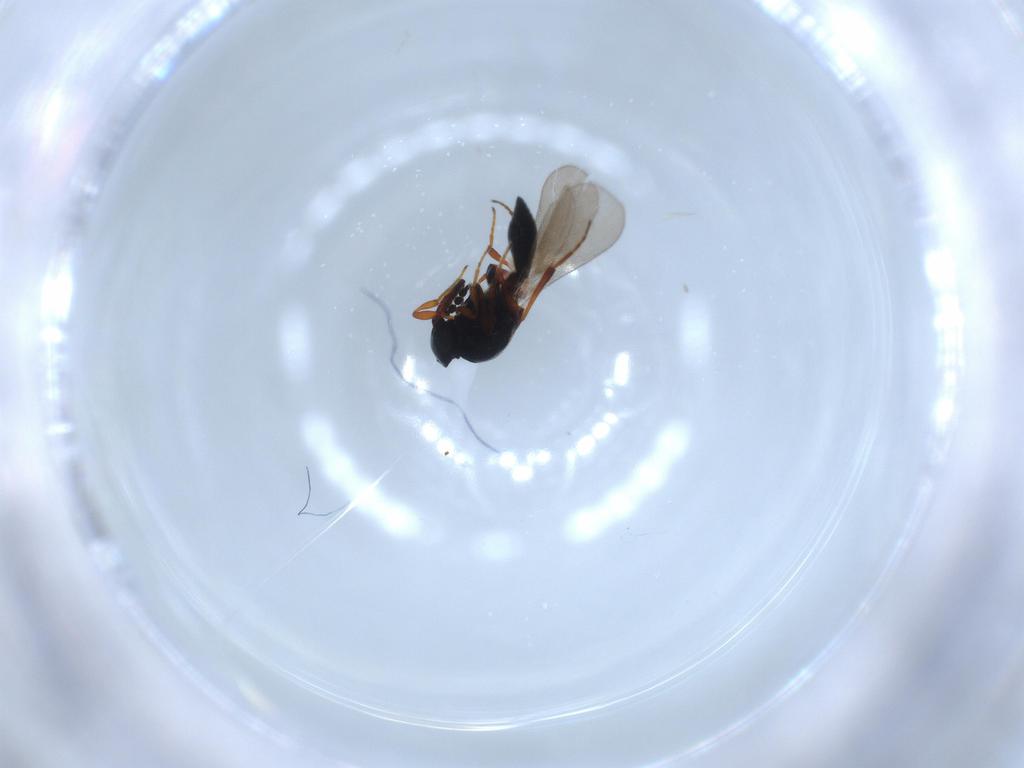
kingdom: Animalia
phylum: Arthropoda
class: Insecta
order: Hymenoptera
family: Platygastridae
